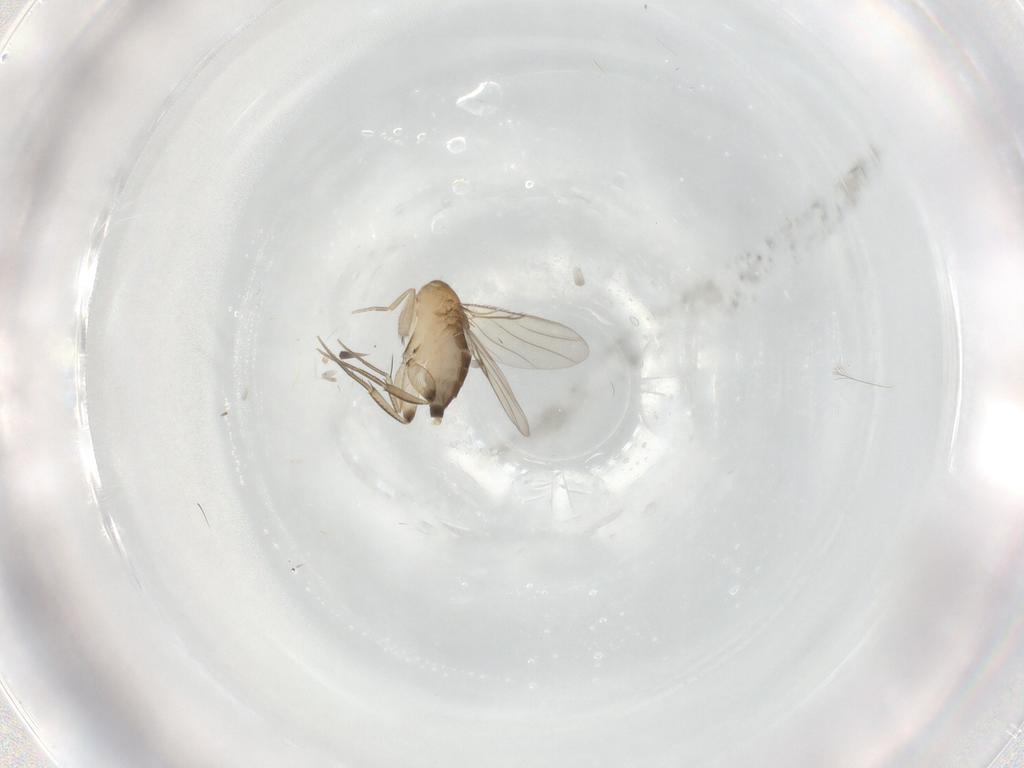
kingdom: Animalia
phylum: Arthropoda
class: Insecta
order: Diptera
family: Phoridae
